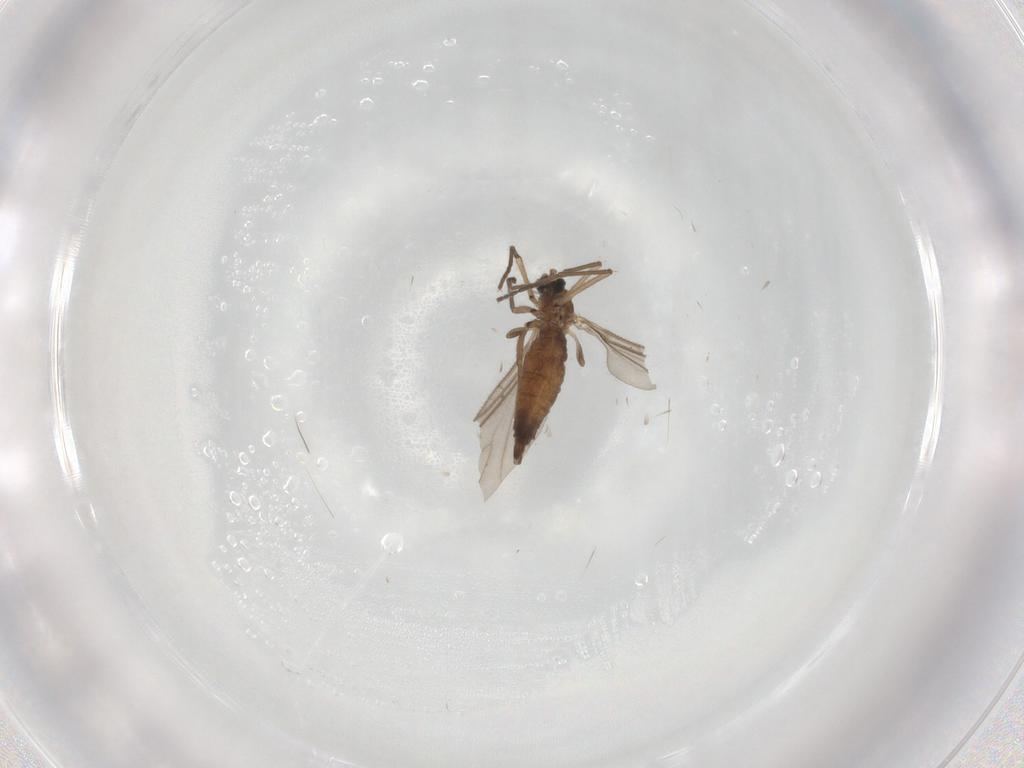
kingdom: Animalia
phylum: Arthropoda
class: Insecta
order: Diptera
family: Sciaridae
